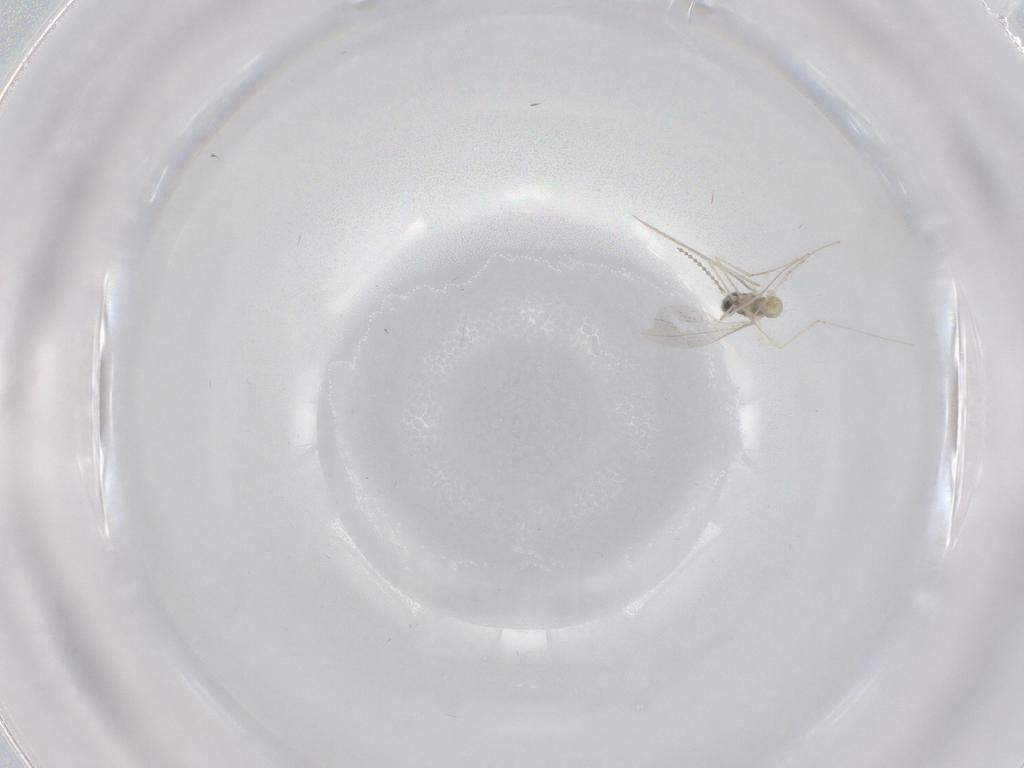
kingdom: Animalia
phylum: Arthropoda
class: Insecta
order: Diptera
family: Cecidomyiidae
